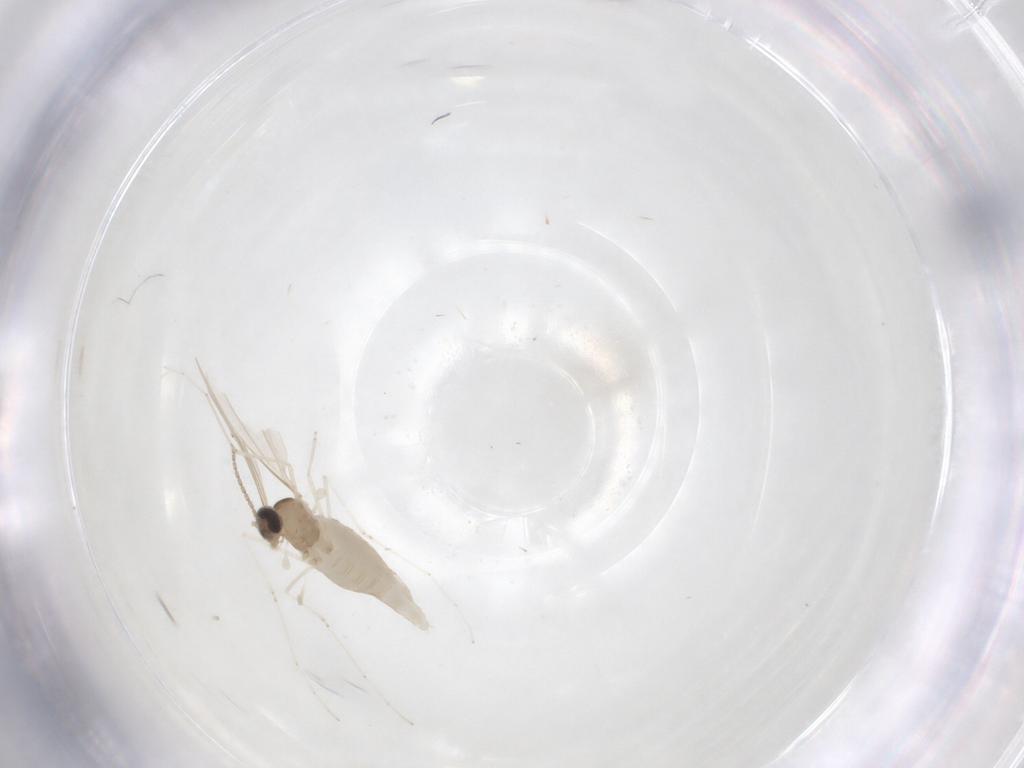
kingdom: Animalia
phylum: Arthropoda
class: Insecta
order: Diptera
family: Cecidomyiidae
